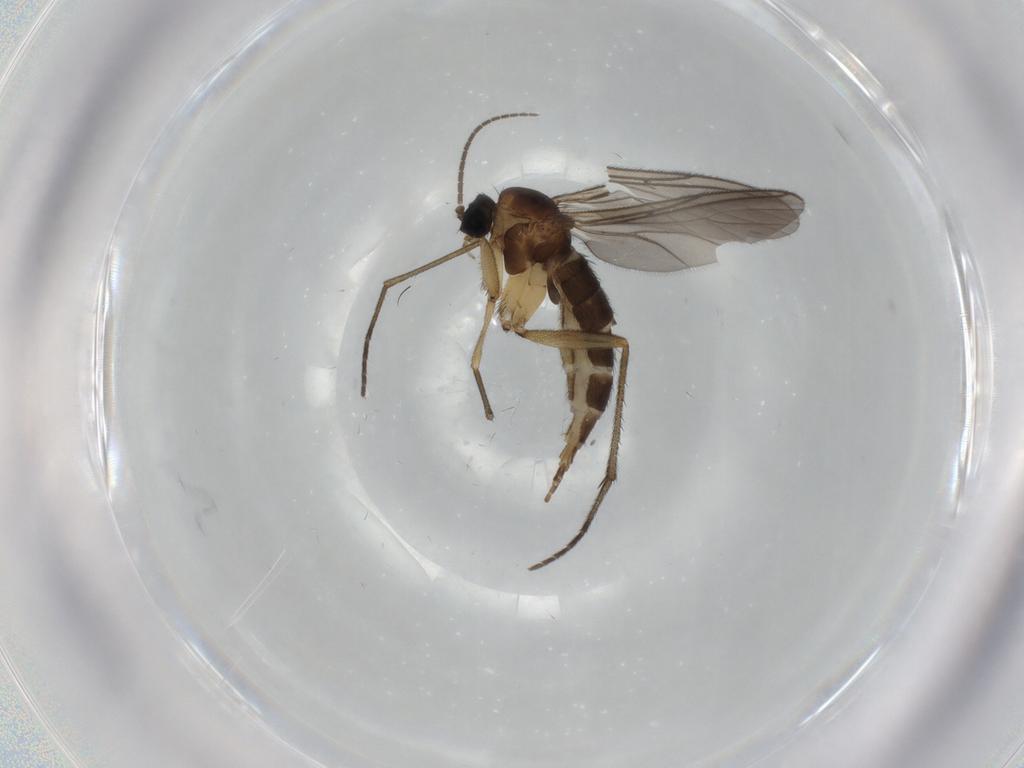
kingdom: Animalia
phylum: Arthropoda
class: Insecta
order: Diptera
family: Sciaridae
